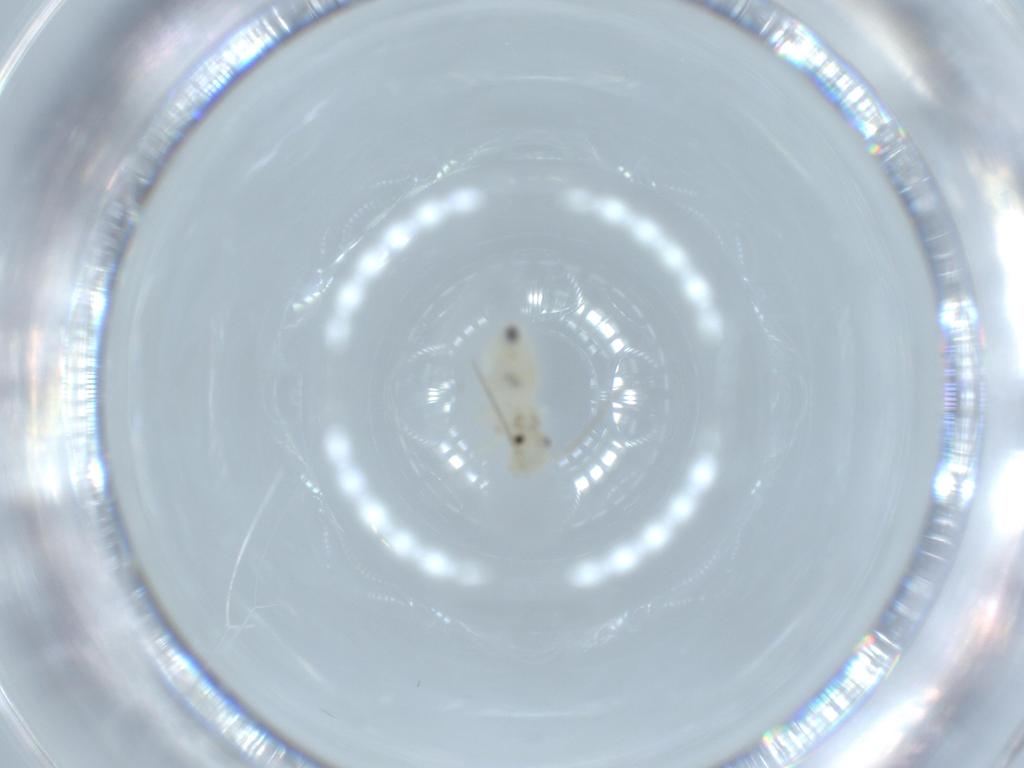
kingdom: Animalia
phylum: Arthropoda
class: Insecta
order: Psocodea
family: Caeciliusidae
